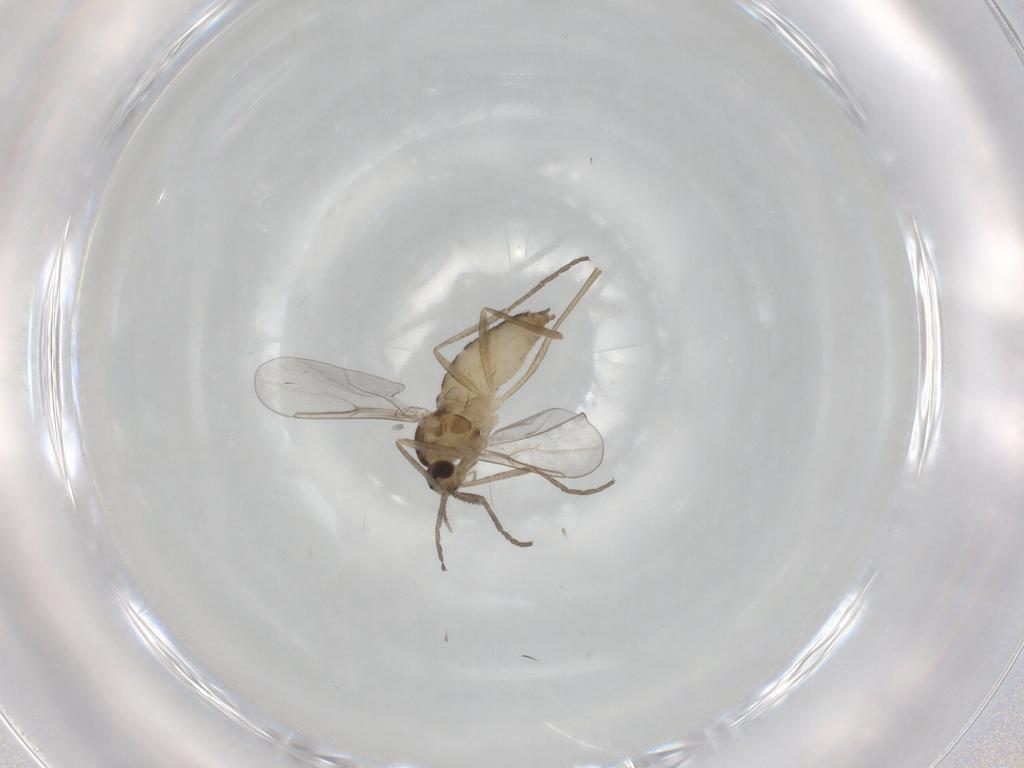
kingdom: Animalia
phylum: Arthropoda
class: Insecta
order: Diptera
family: Cecidomyiidae
